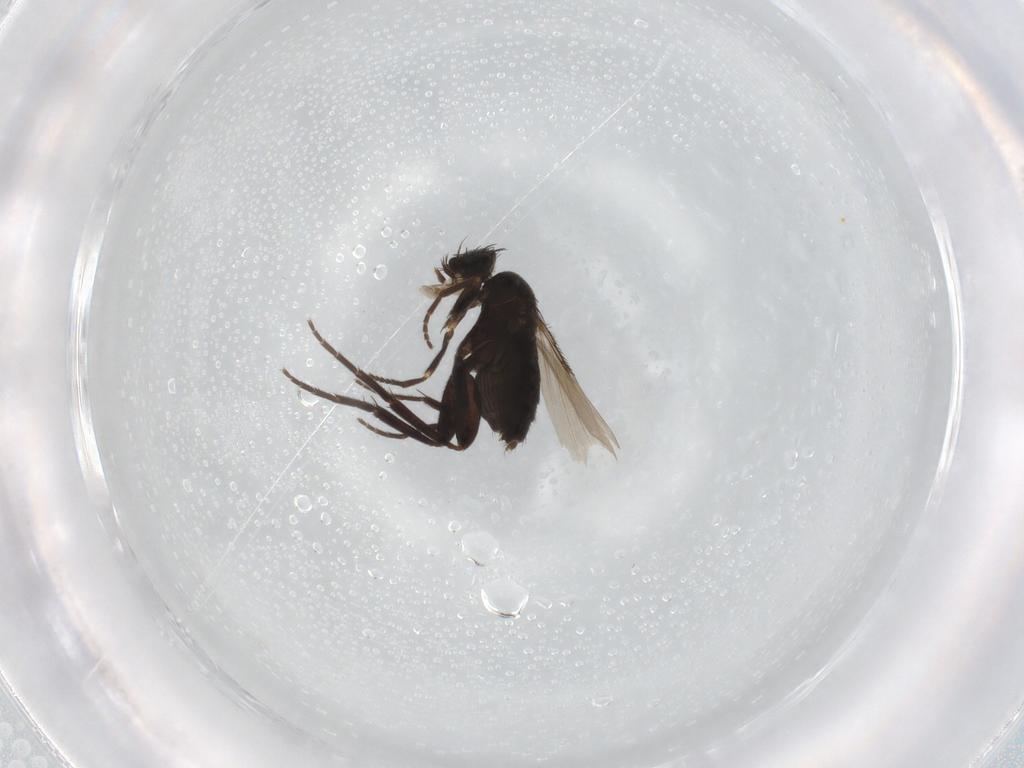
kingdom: Animalia
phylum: Arthropoda
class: Insecta
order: Diptera
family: Phoridae
